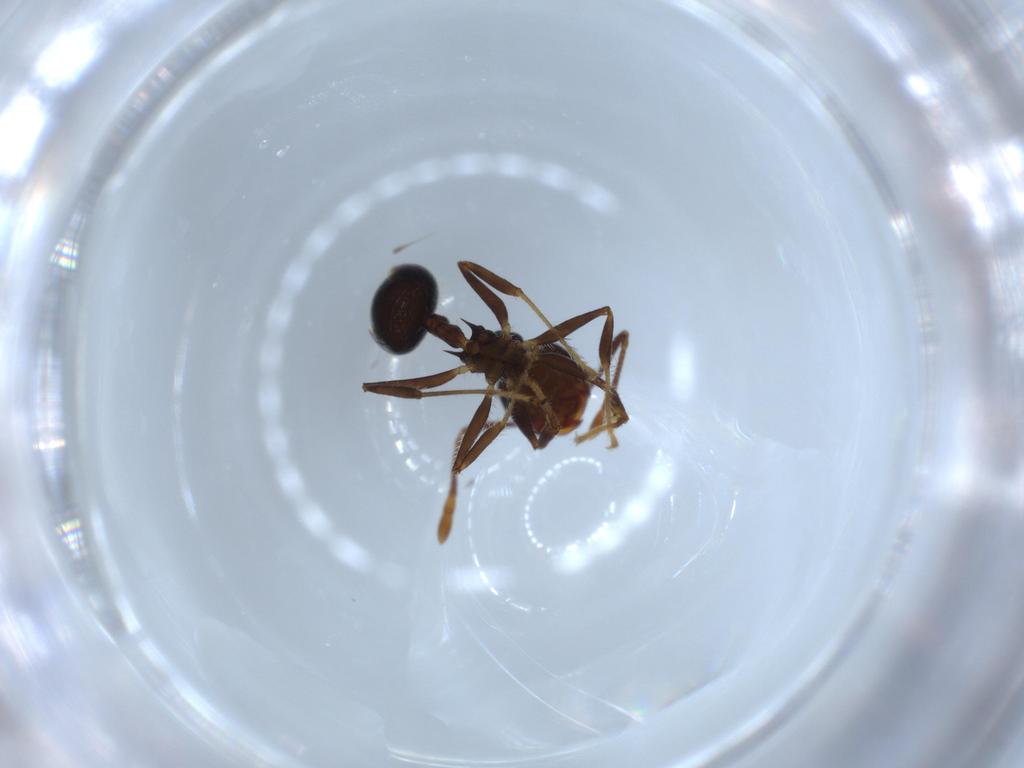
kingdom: Animalia
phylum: Arthropoda
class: Insecta
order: Hymenoptera
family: Formicidae
